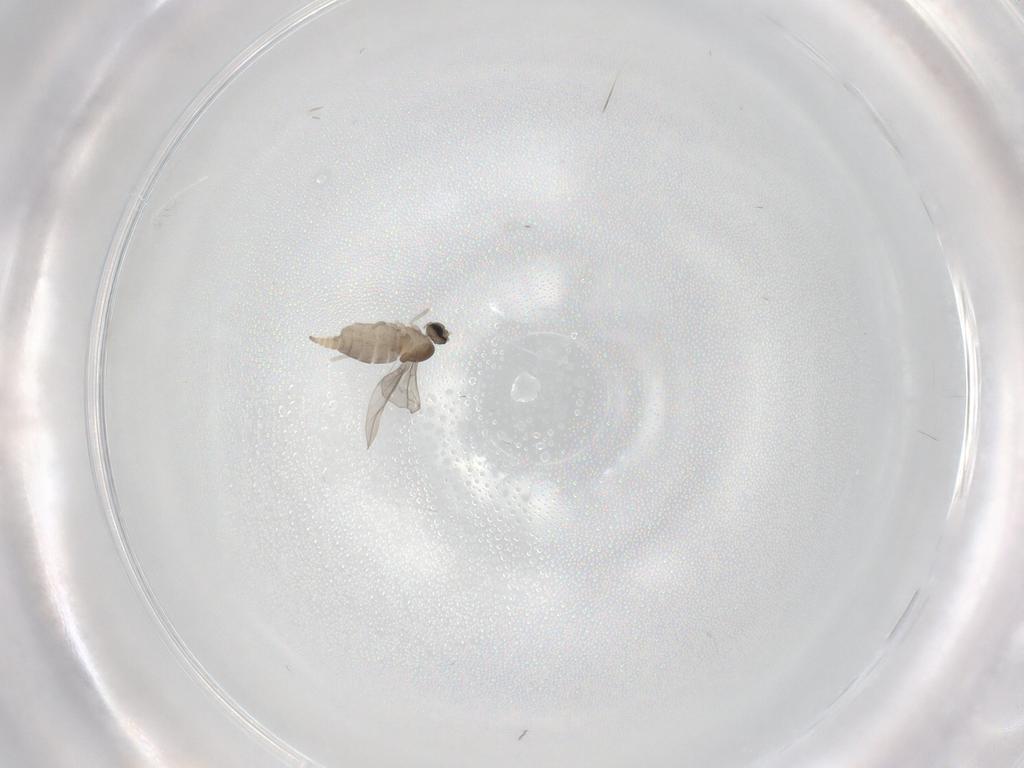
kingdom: Animalia
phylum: Arthropoda
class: Insecta
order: Diptera
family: Cecidomyiidae
